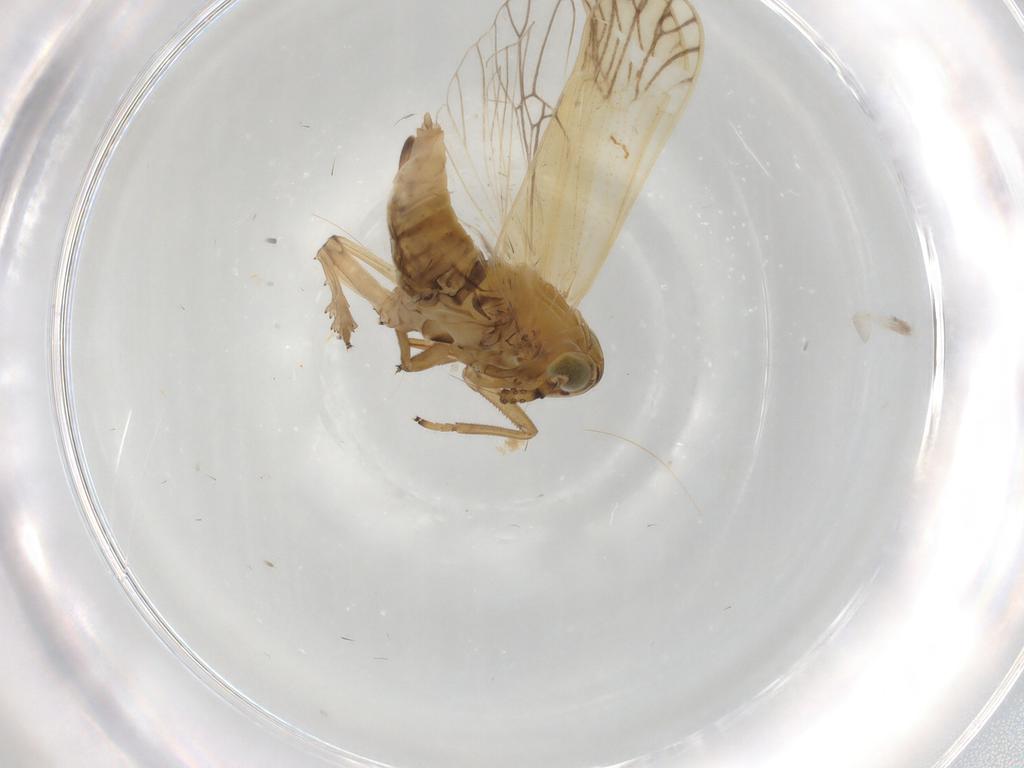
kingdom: Animalia
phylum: Arthropoda
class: Insecta
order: Hemiptera
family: Delphacidae
